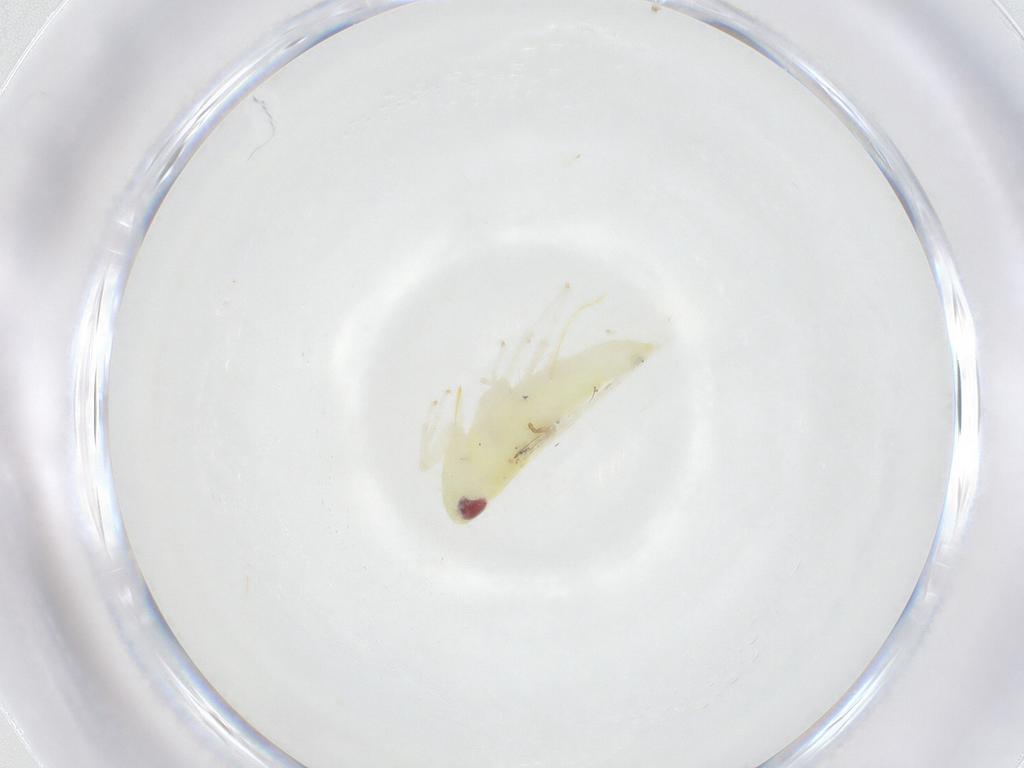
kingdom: Animalia
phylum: Arthropoda
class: Insecta
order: Hemiptera
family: Cicadellidae
